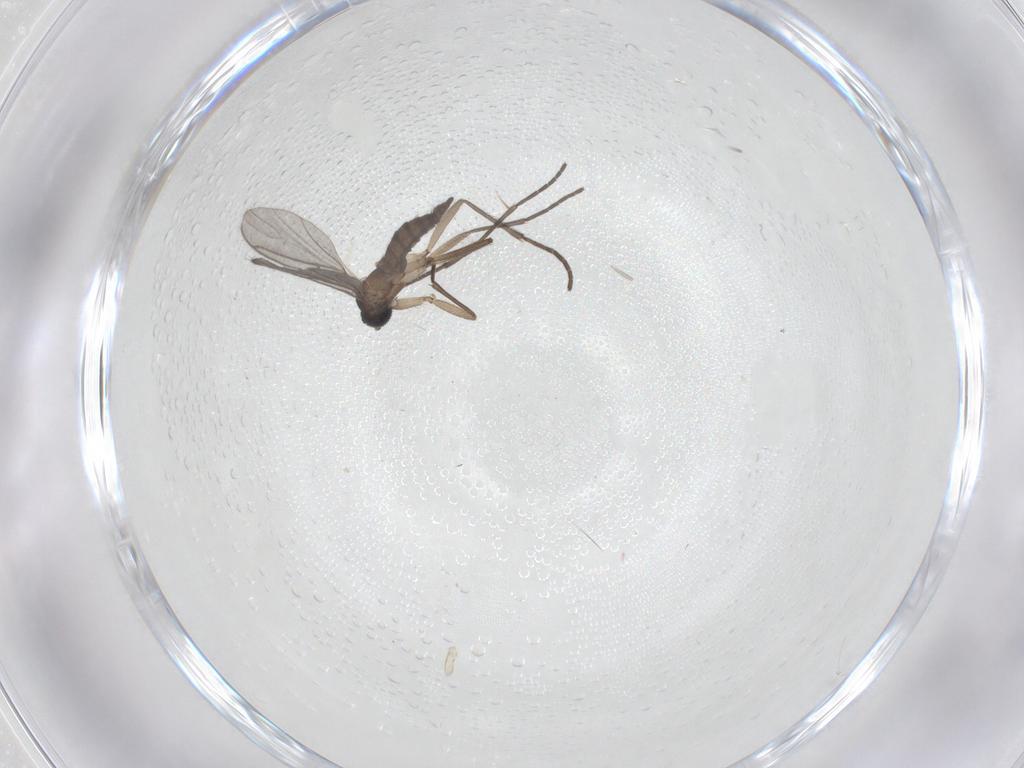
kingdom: Animalia
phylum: Arthropoda
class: Insecta
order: Diptera
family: Sciaridae
